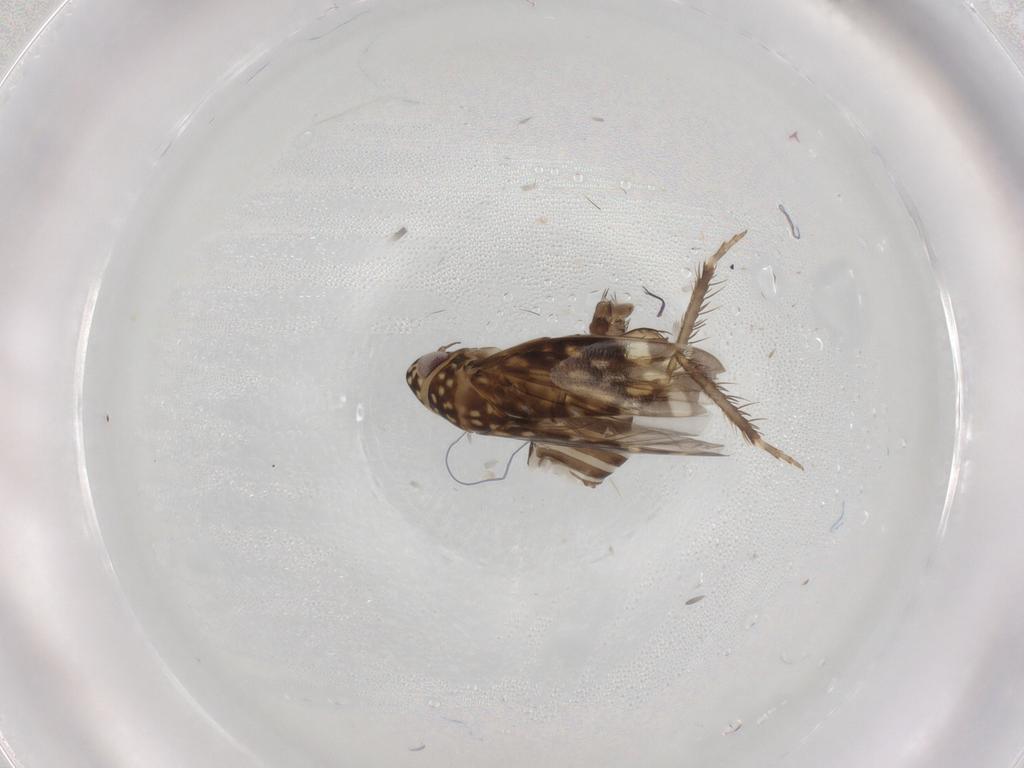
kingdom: Animalia
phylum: Arthropoda
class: Insecta
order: Hemiptera
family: Cicadellidae
